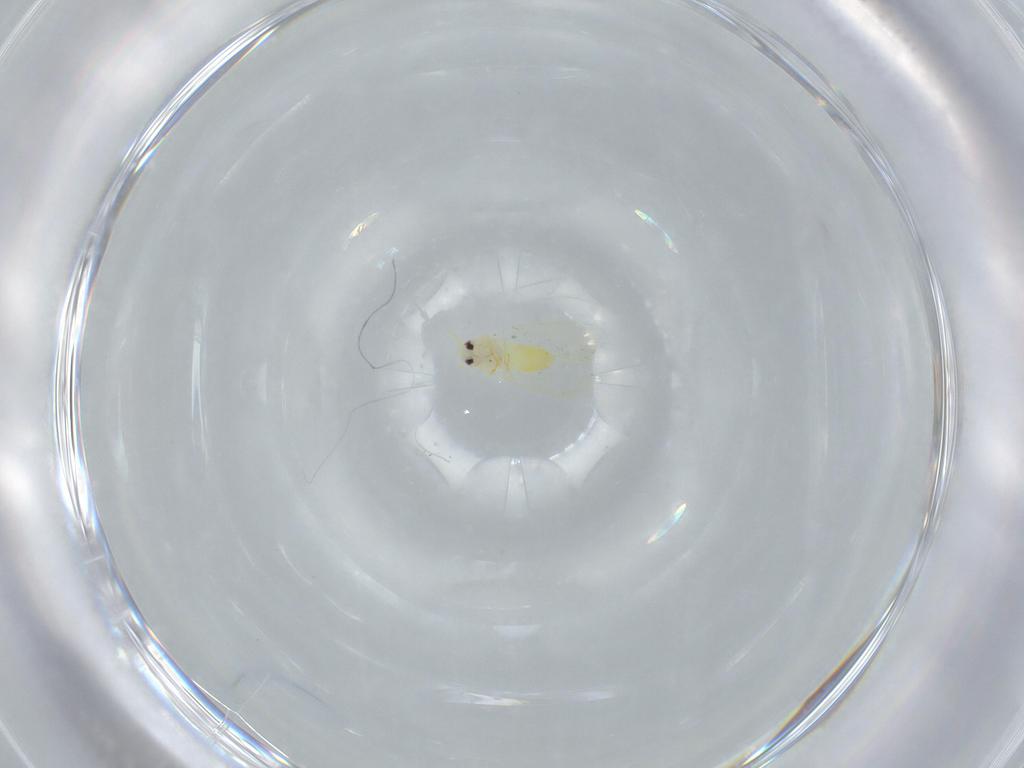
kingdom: Animalia
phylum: Arthropoda
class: Insecta
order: Hemiptera
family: Aleyrodidae
